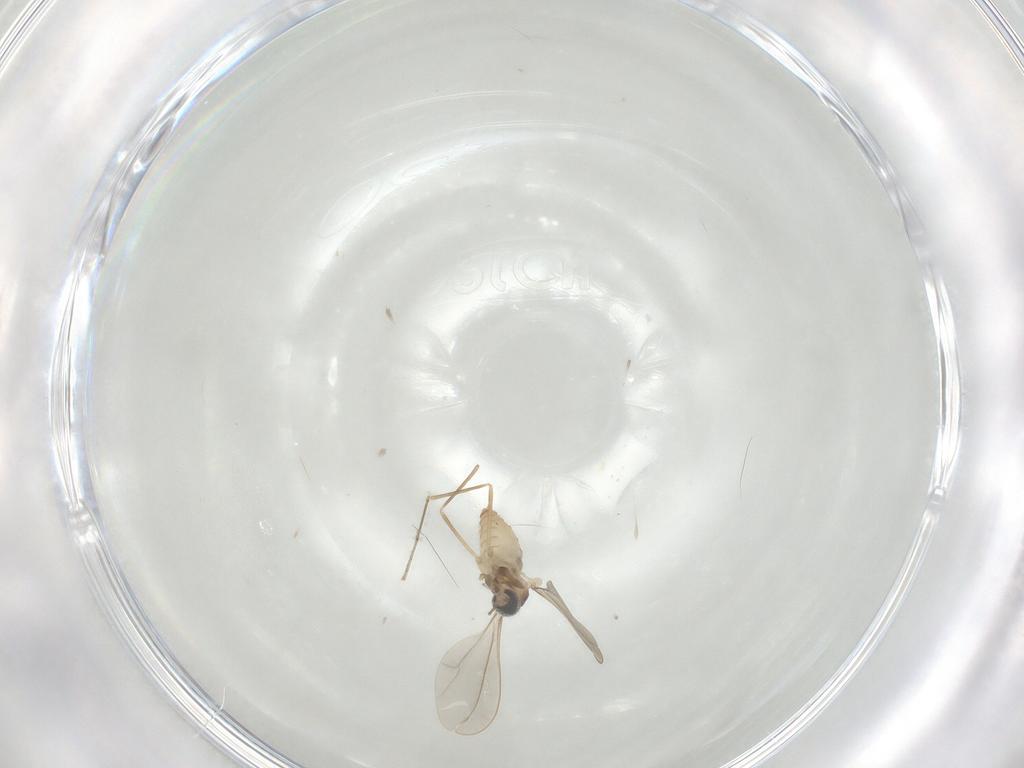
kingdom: Animalia
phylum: Arthropoda
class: Insecta
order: Diptera
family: Cecidomyiidae
